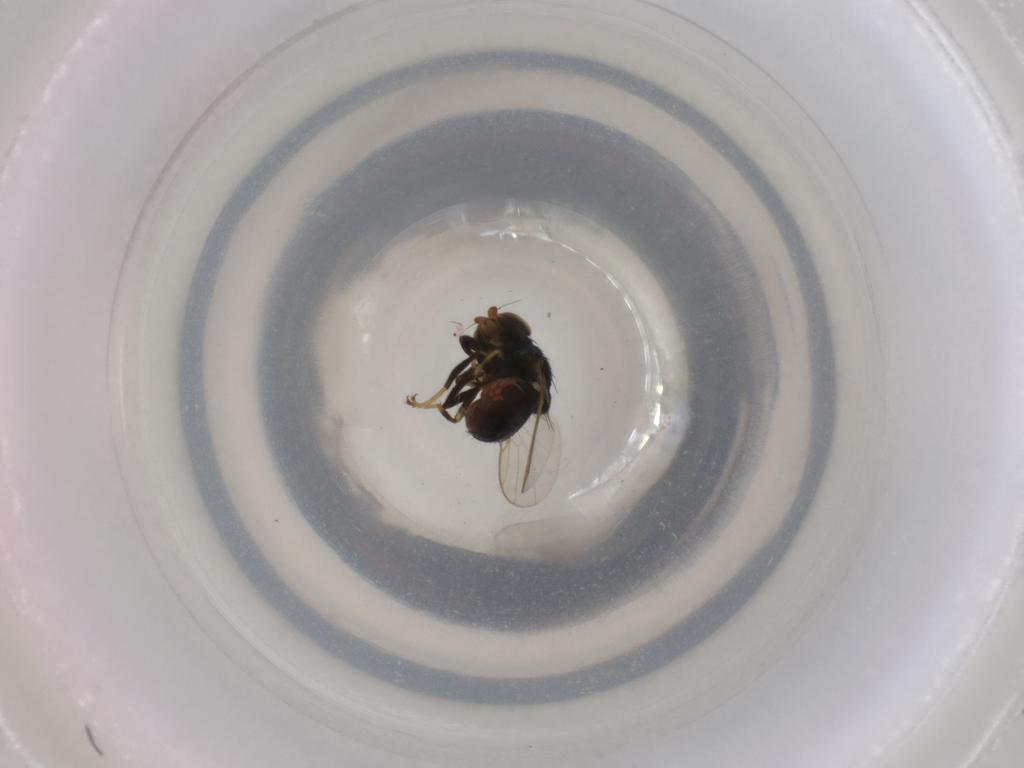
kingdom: Animalia
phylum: Arthropoda
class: Insecta
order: Diptera
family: Chloropidae
